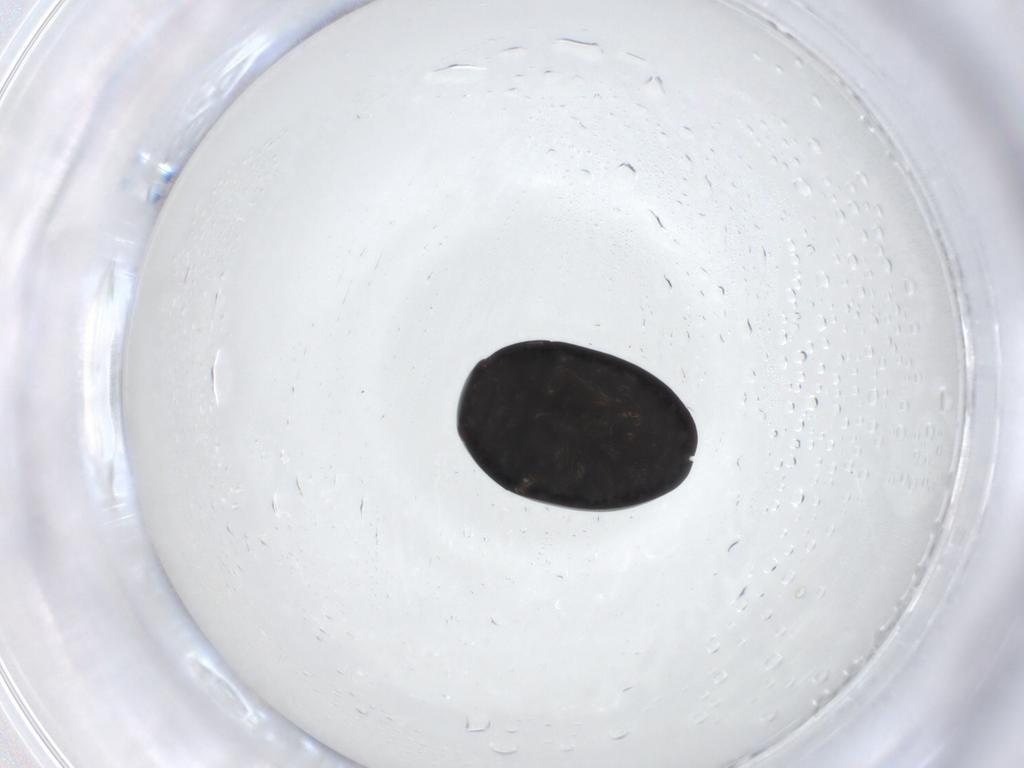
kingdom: Animalia
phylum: Arthropoda
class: Insecta
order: Coleoptera
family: Chrysomelidae
